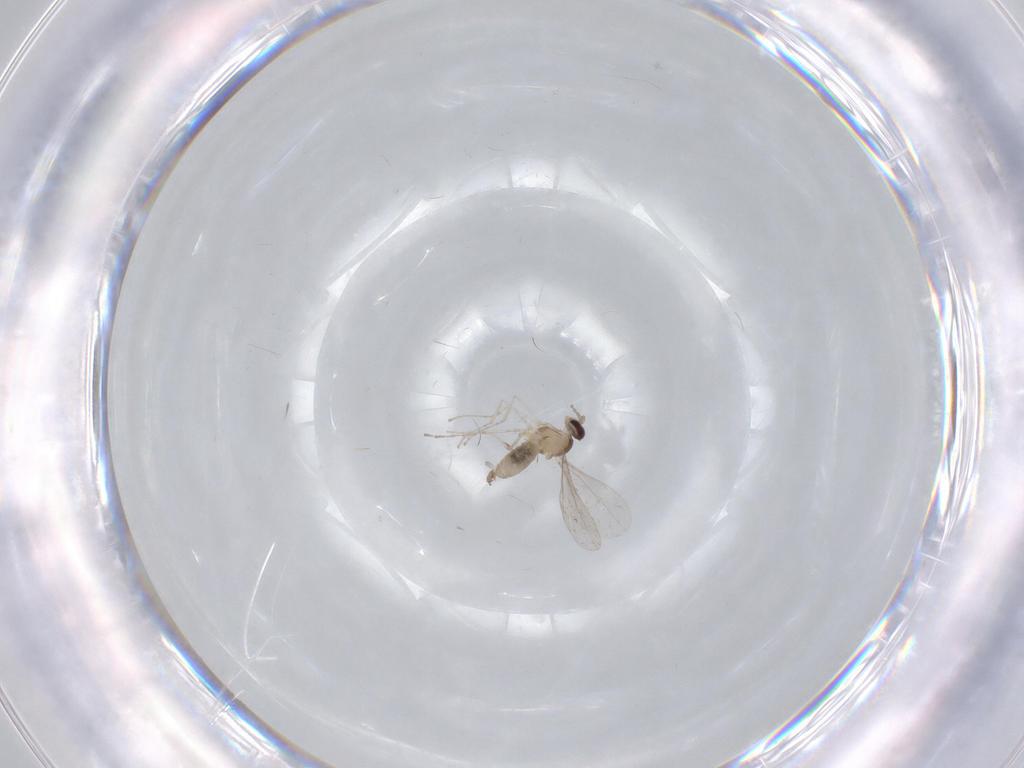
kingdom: Animalia
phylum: Arthropoda
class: Insecta
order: Diptera
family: Cecidomyiidae
